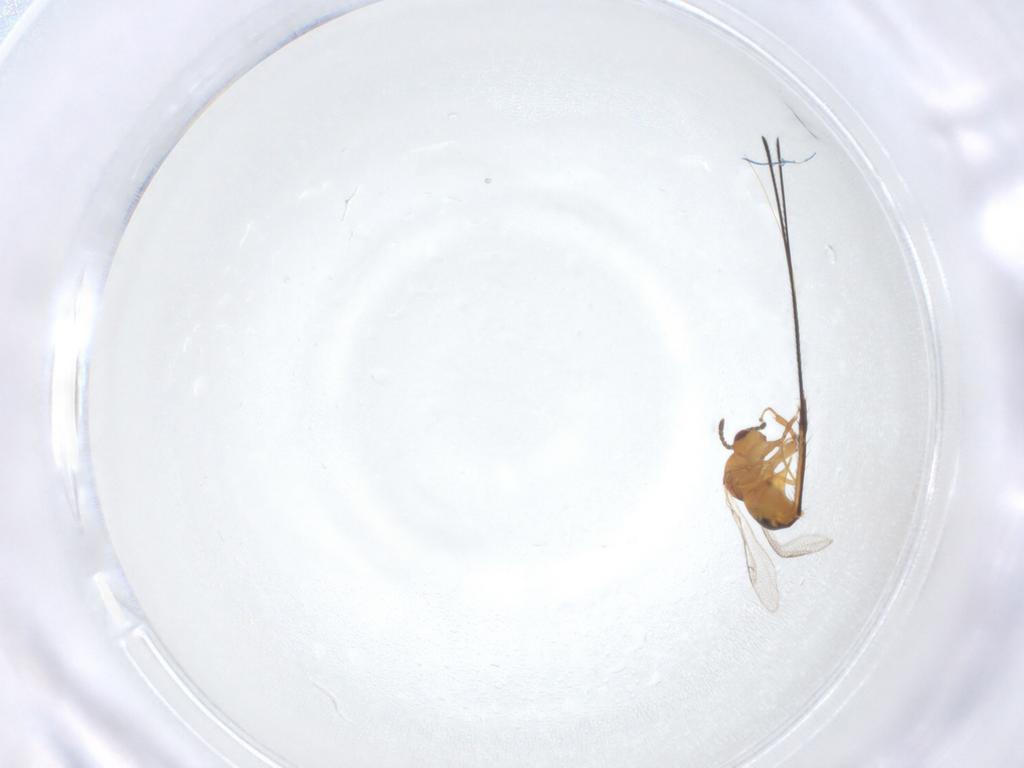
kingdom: Animalia
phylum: Arthropoda
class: Insecta
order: Hymenoptera
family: Pteromalidae
